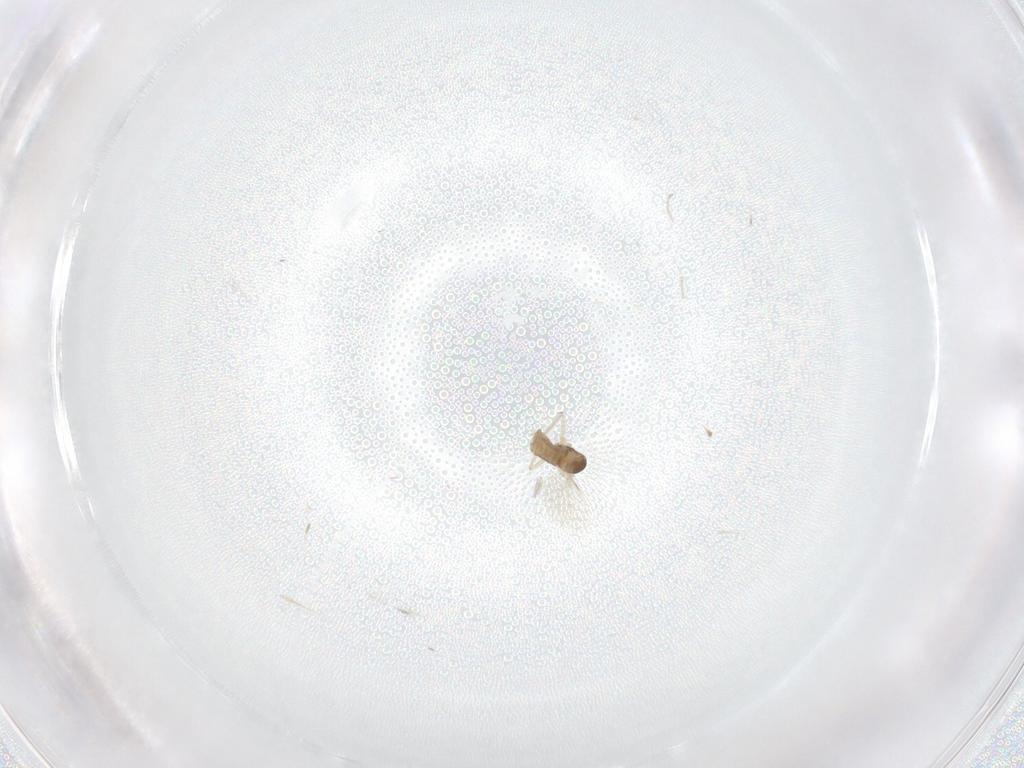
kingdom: Animalia
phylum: Arthropoda
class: Insecta
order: Diptera
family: Cecidomyiidae
